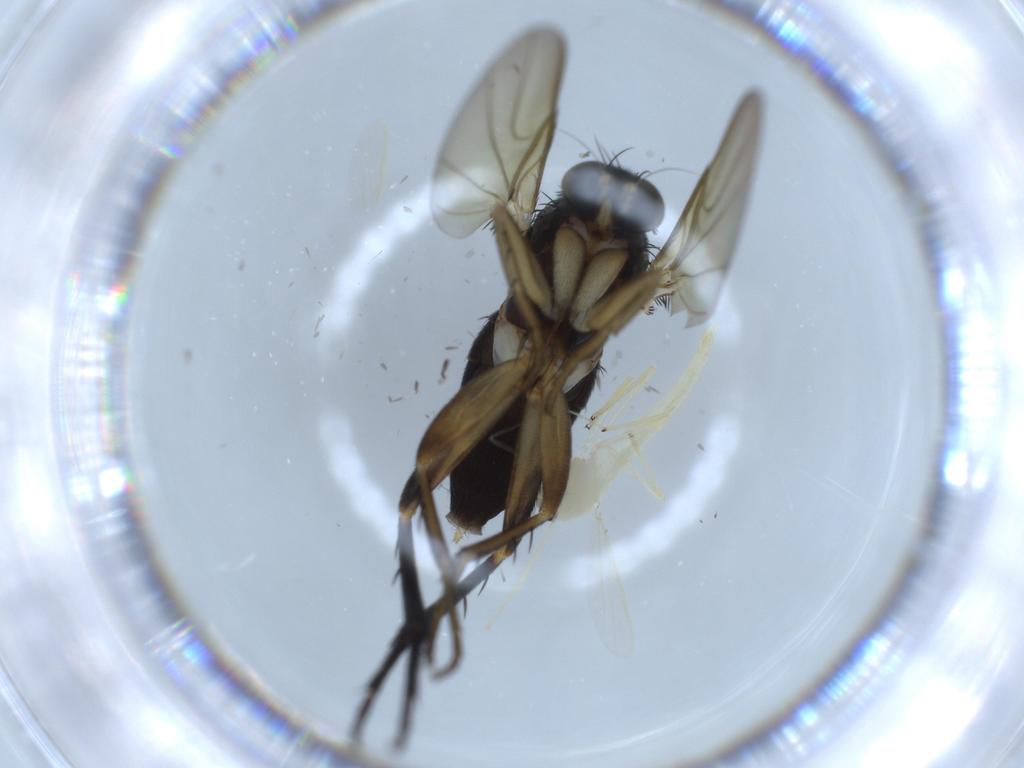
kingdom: Animalia
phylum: Arthropoda
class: Insecta
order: Diptera
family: Phoridae
